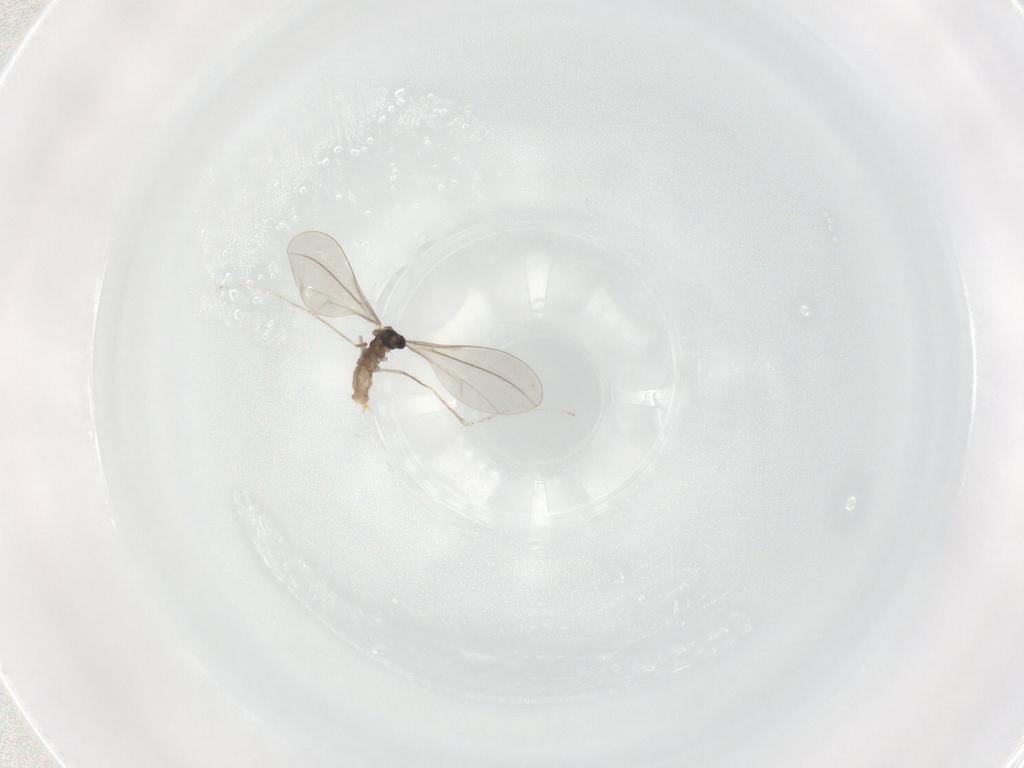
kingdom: Animalia
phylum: Arthropoda
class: Insecta
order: Diptera
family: Cecidomyiidae
